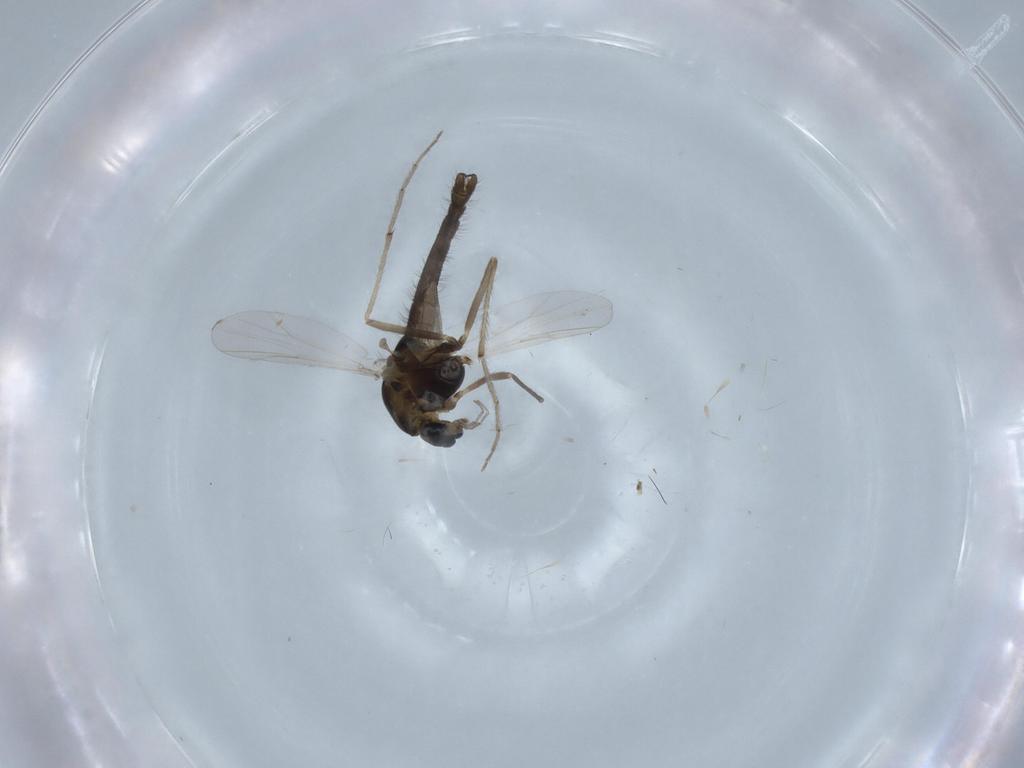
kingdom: Animalia
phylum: Arthropoda
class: Insecta
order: Diptera
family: Chironomidae
